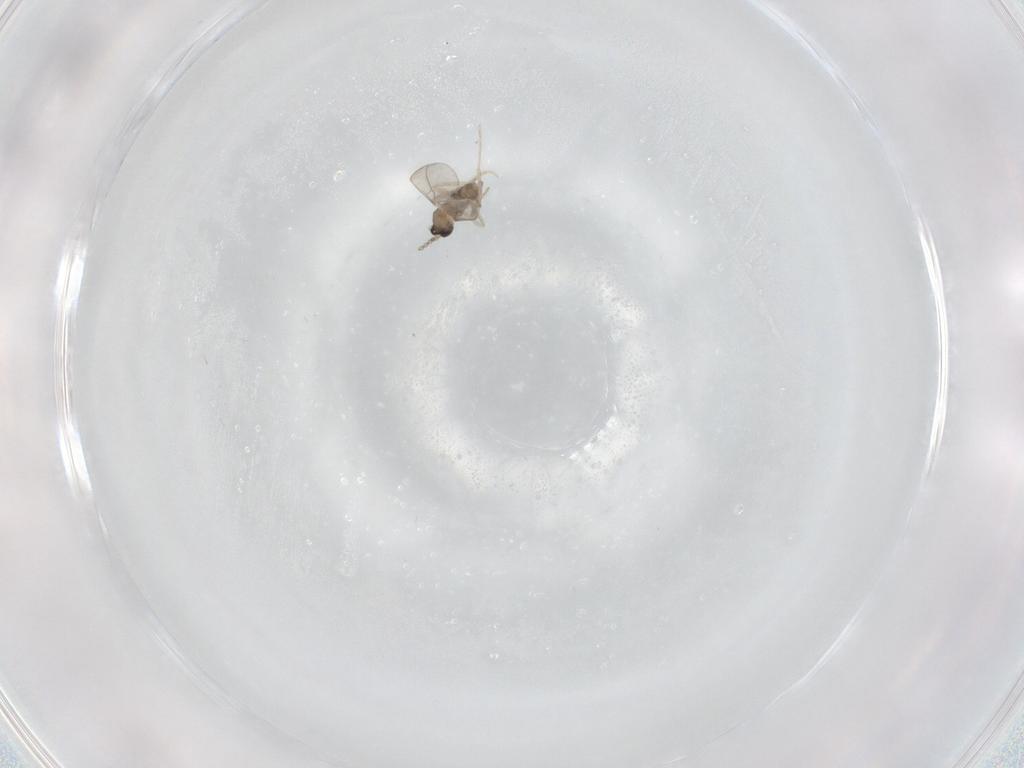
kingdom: Animalia
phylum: Arthropoda
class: Insecta
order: Diptera
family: Cecidomyiidae
